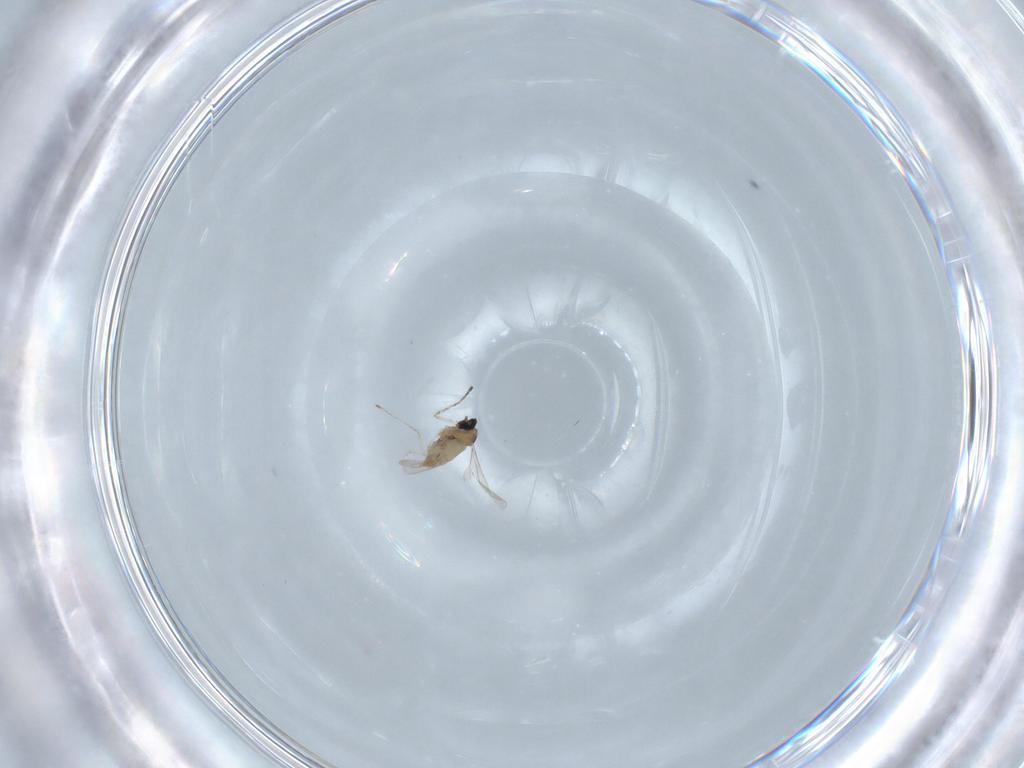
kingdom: Animalia
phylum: Arthropoda
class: Insecta
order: Diptera
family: Cecidomyiidae
